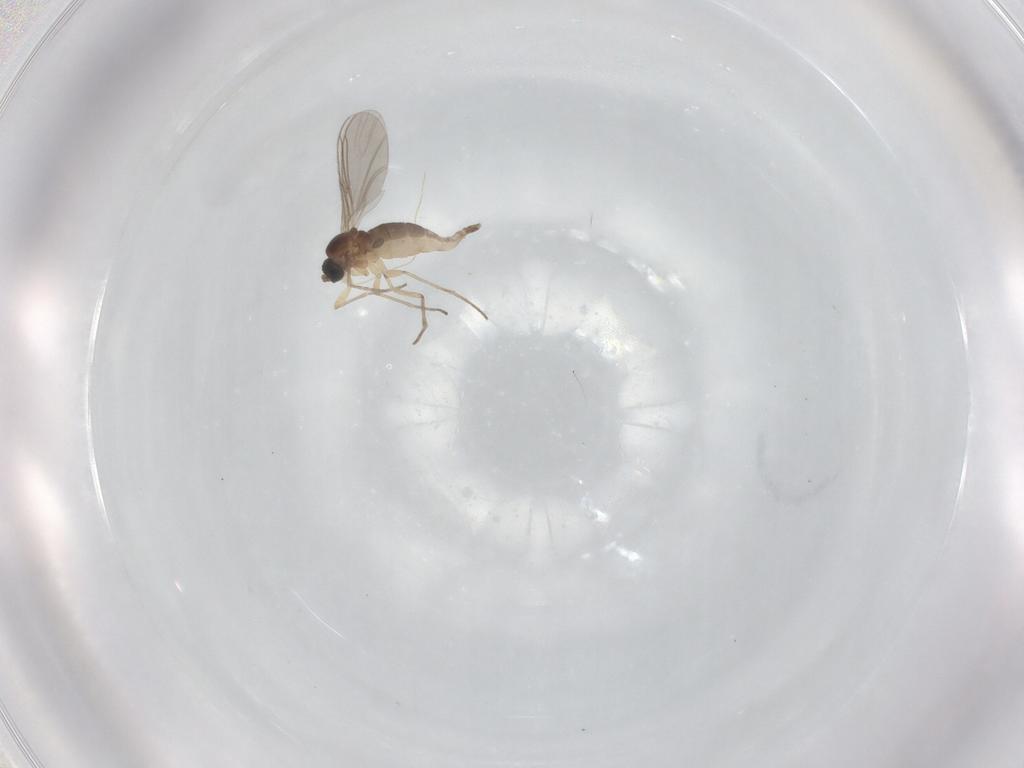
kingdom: Animalia
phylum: Arthropoda
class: Insecta
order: Diptera
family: Sciaridae
